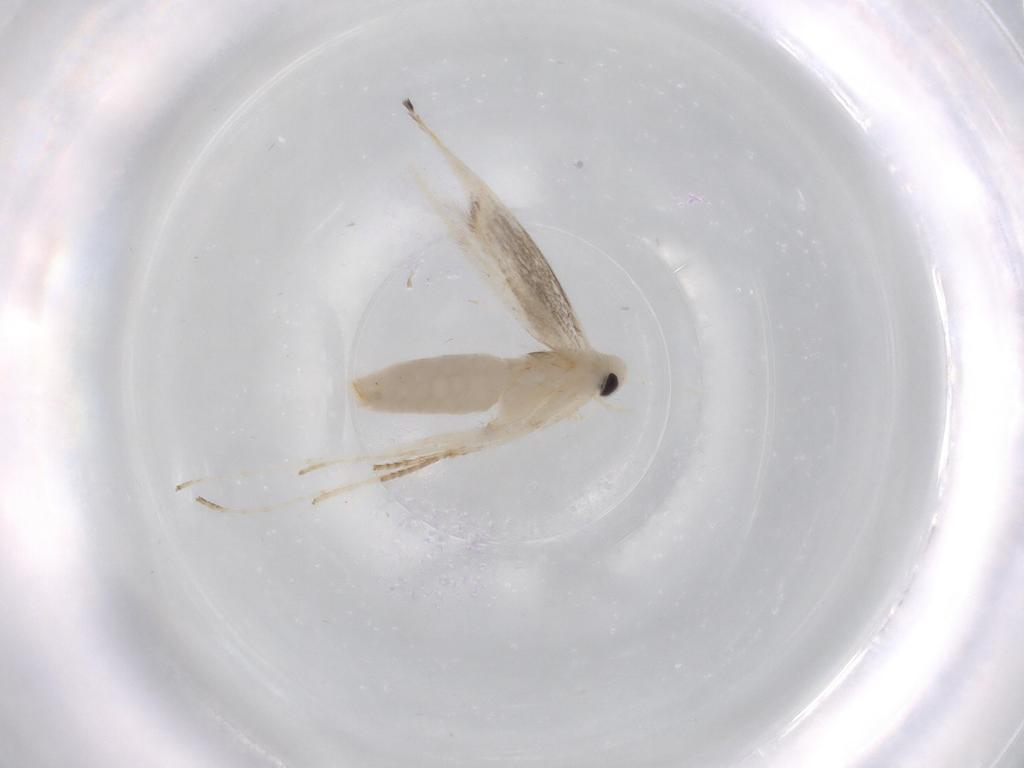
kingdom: Animalia
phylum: Arthropoda
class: Insecta
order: Lepidoptera
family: Gracillariidae
